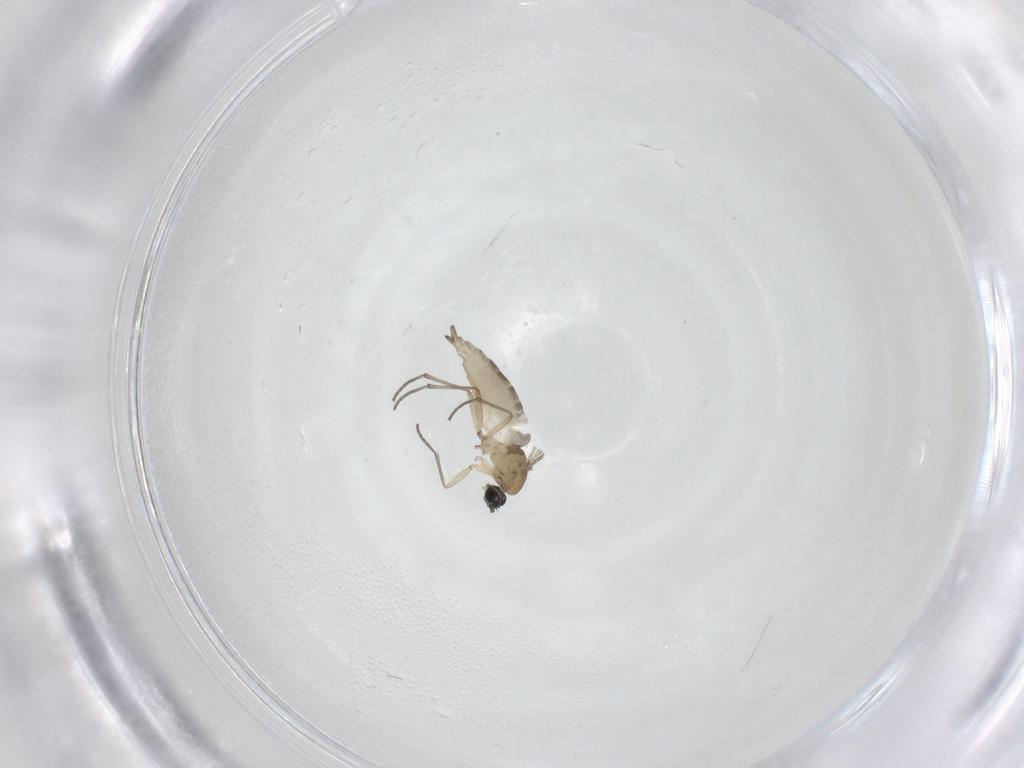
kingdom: Animalia
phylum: Arthropoda
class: Insecta
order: Diptera
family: Sciaridae
